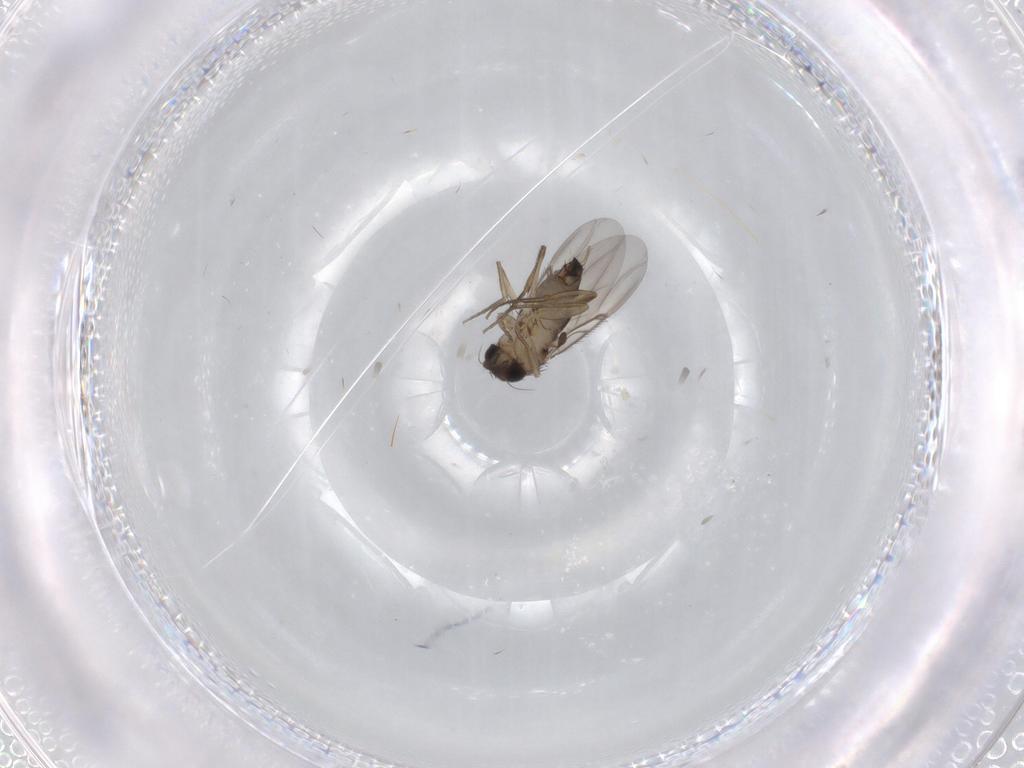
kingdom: Animalia
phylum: Arthropoda
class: Insecta
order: Diptera
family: Phoridae
